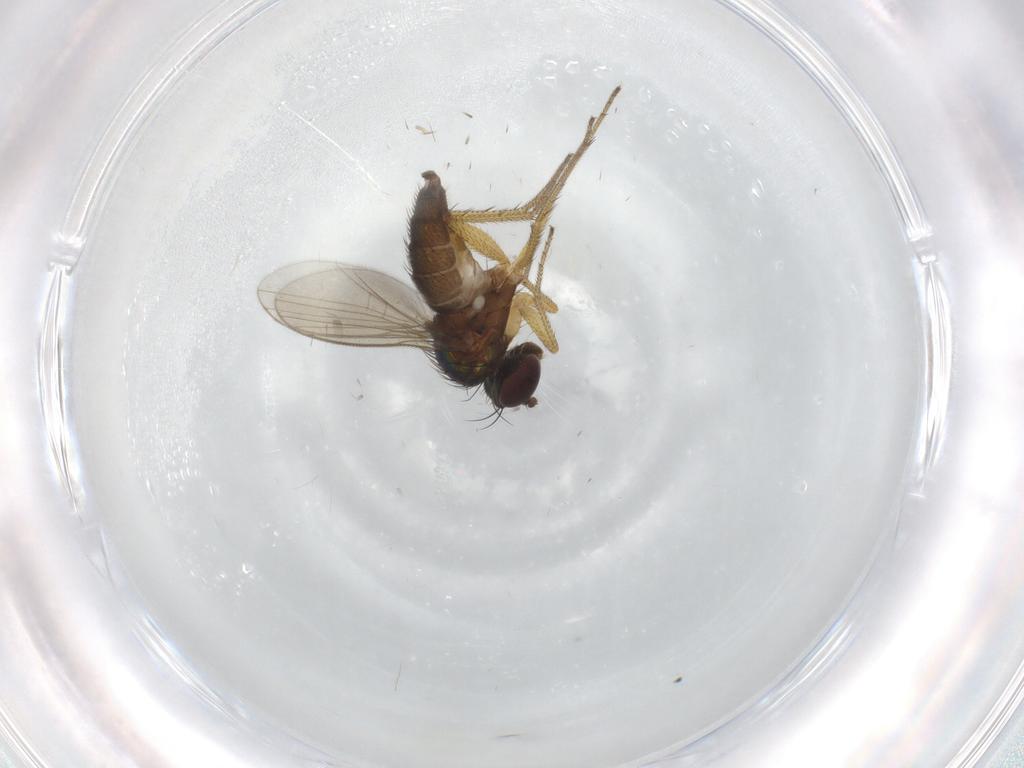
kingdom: Animalia
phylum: Arthropoda
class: Insecta
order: Diptera
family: Dolichopodidae
